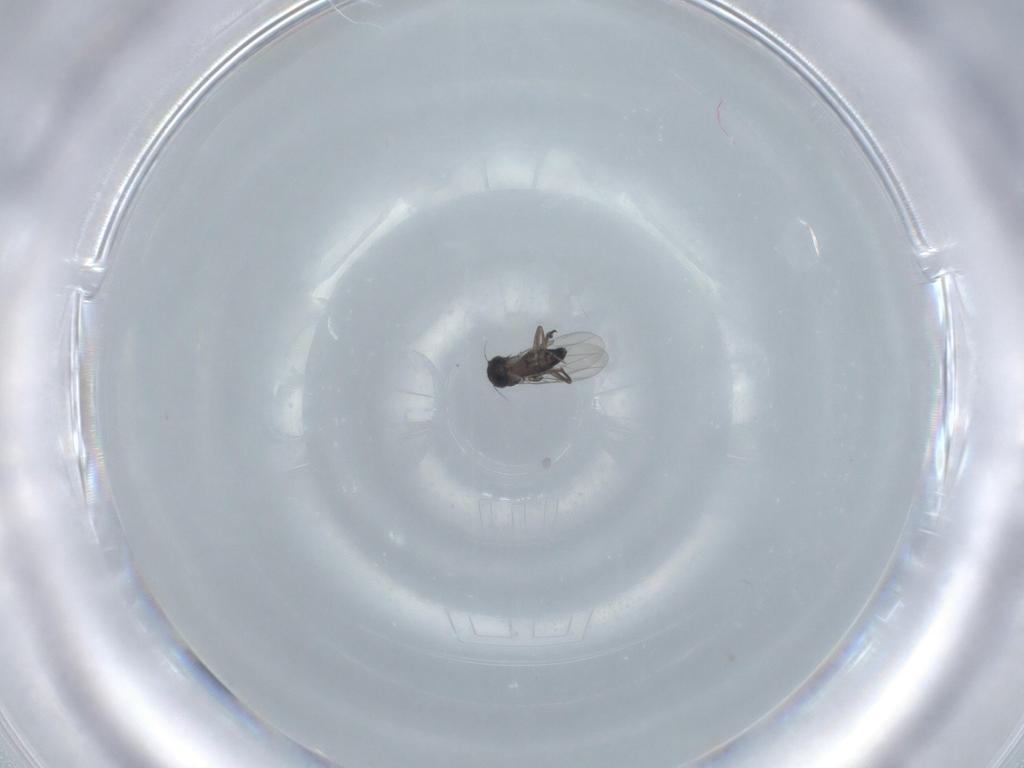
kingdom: Animalia
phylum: Arthropoda
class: Insecta
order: Diptera
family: Phoridae
